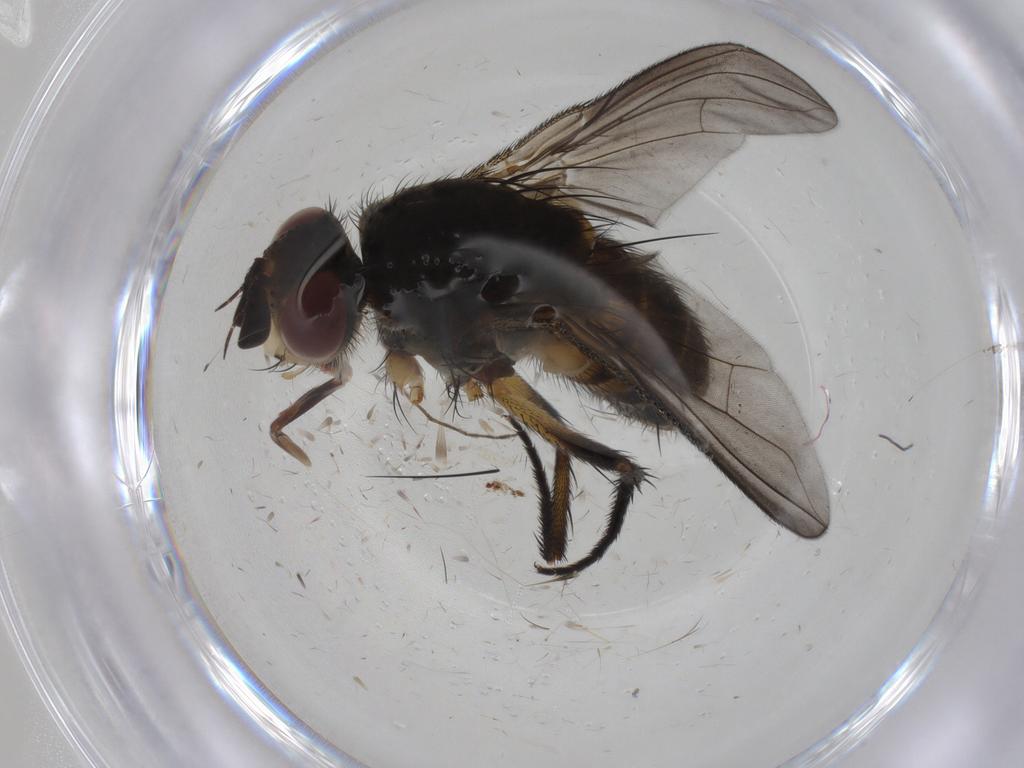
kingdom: Animalia
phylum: Arthropoda
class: Insecta
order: Diptera
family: Tachinidae
